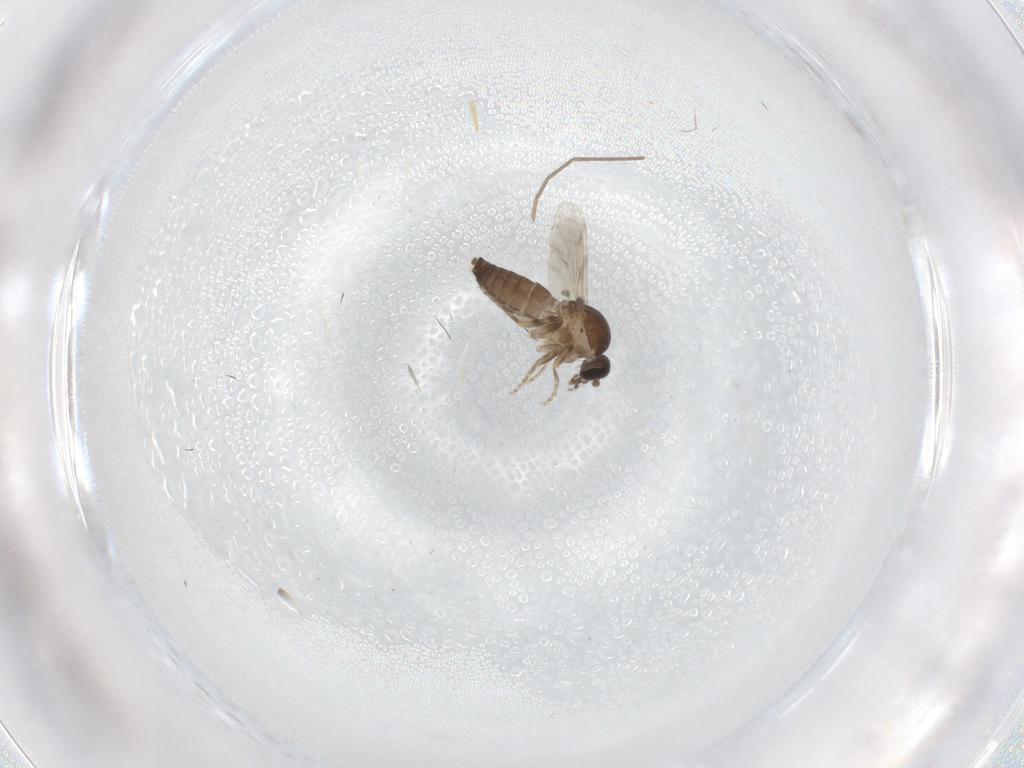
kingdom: Animalia
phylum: Arthropoda
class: Insecta
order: Diptera
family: Ceratopogonidae
